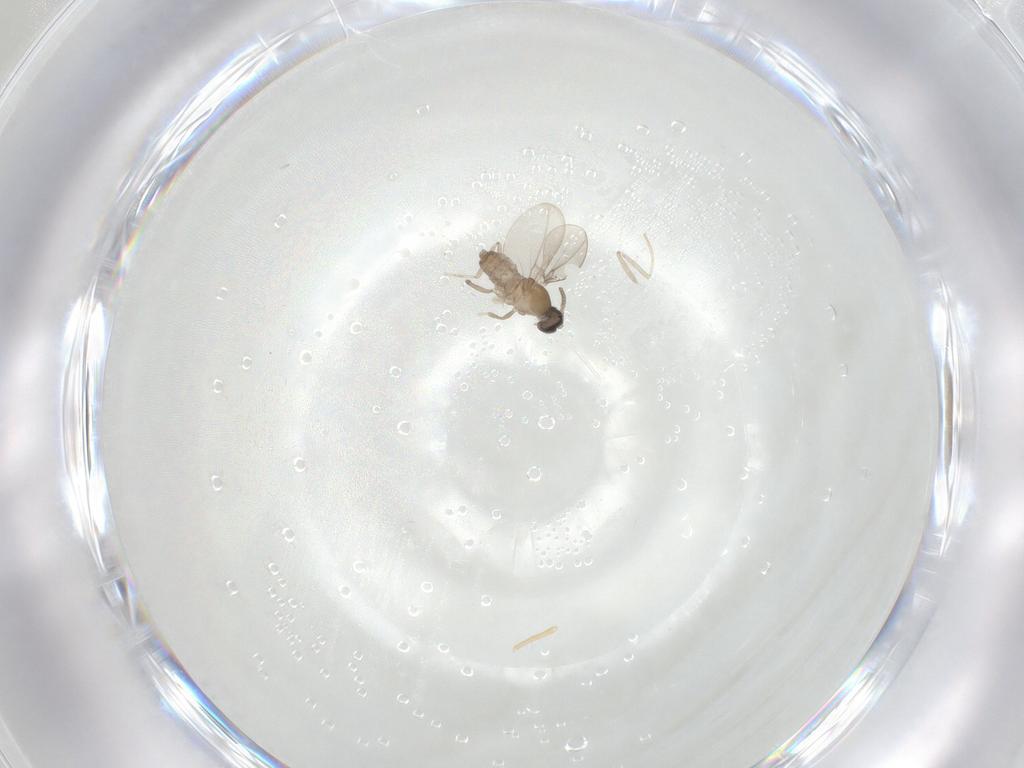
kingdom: Animalia
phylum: Arthropoda
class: Insecta
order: Diptera
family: Cecidomyiidae
